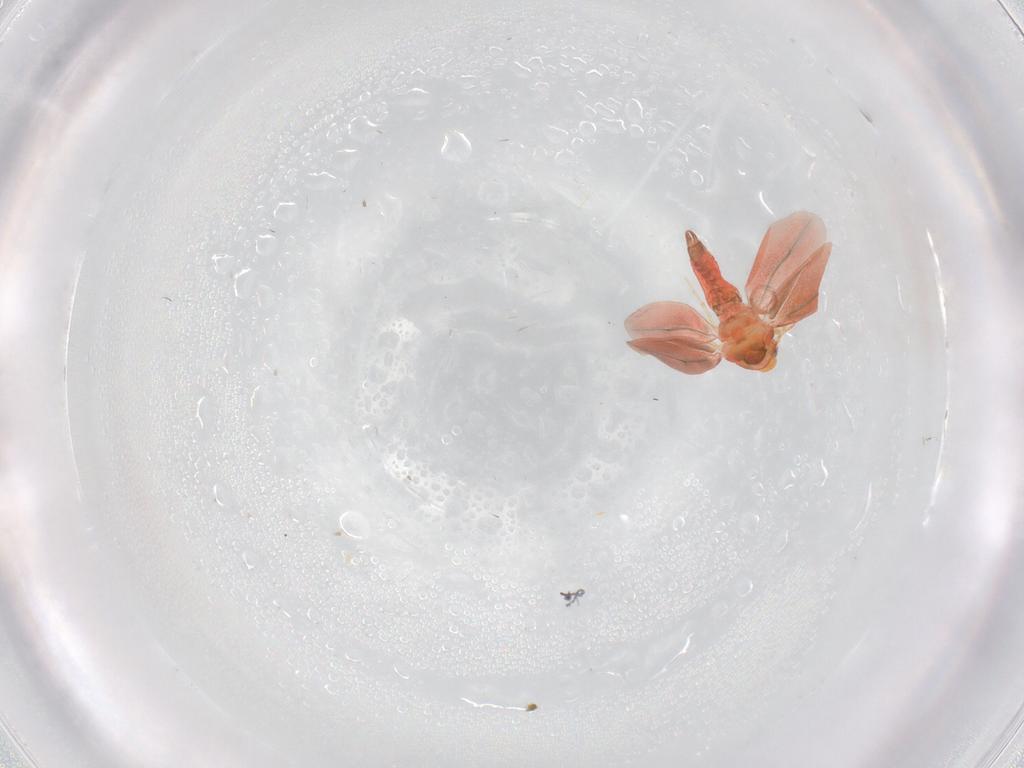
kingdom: Animalia
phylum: Arthropoda
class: Insecta
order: Hemiptera
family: Aleyrodidae
